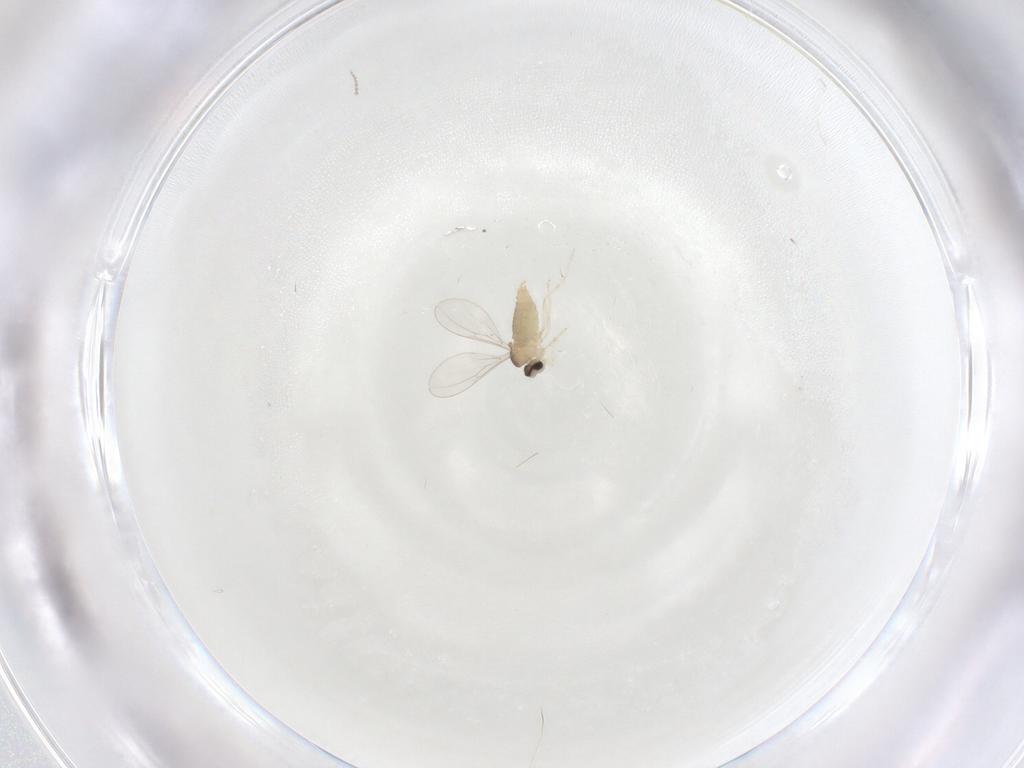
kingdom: Animalia
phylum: Arthropoda
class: Insecta
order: Diptera
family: Cecidomyiidae
